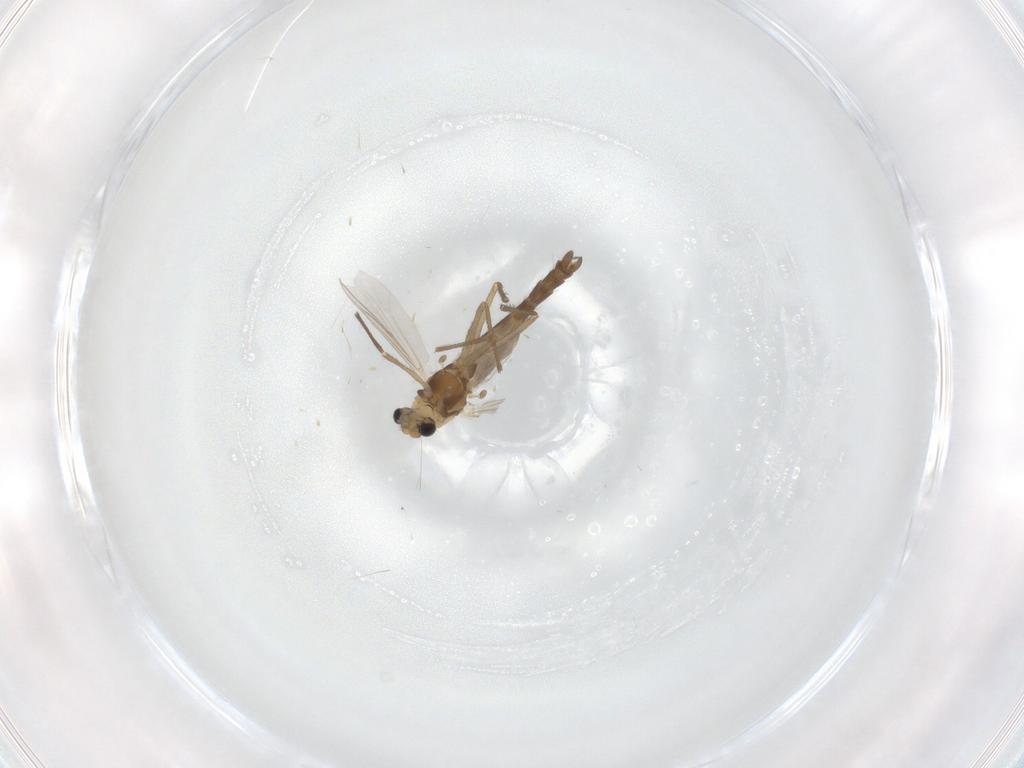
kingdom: Animalia
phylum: Arthropoda
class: Insecta
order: Diptera
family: Chironomidae
